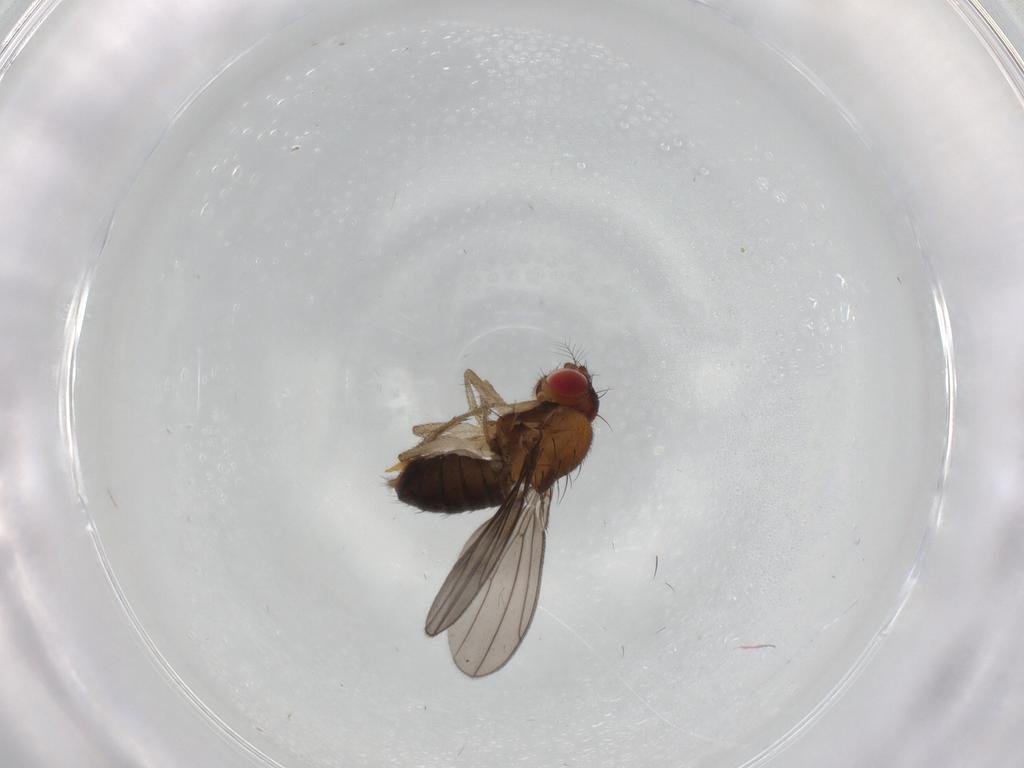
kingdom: Animalia
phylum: Arthropoda
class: Insecta
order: Diptera
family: Drosophilidae
